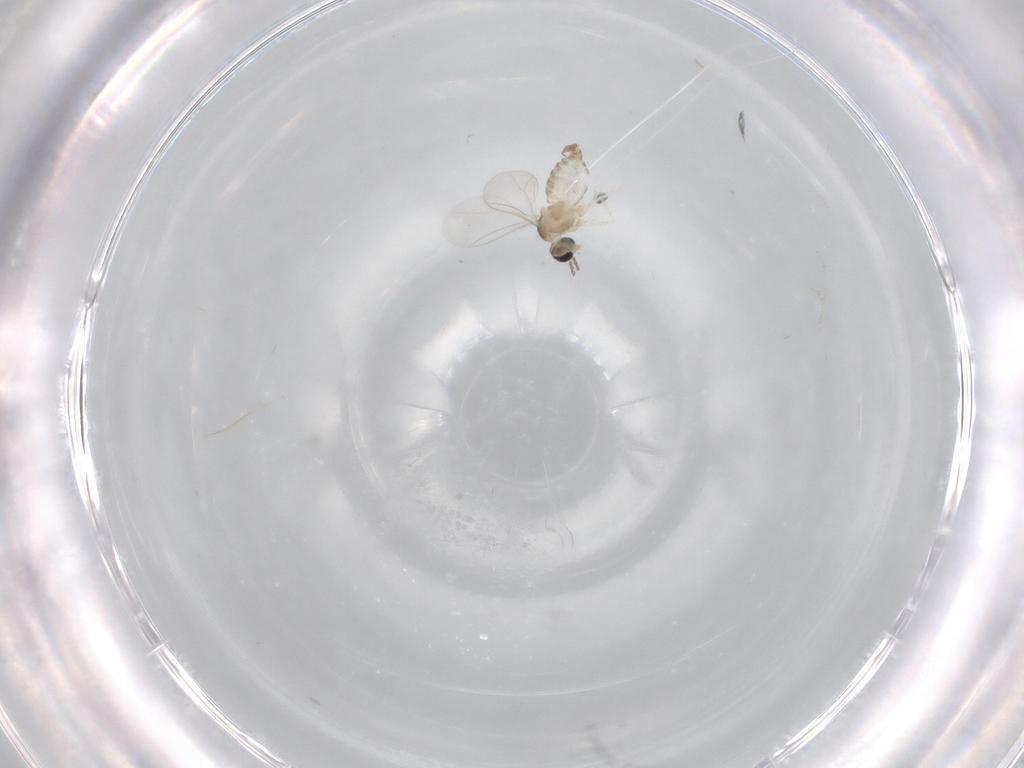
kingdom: Animalia
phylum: Arthropoda
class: Insecta
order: Diptera
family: Cecidomyiidae
